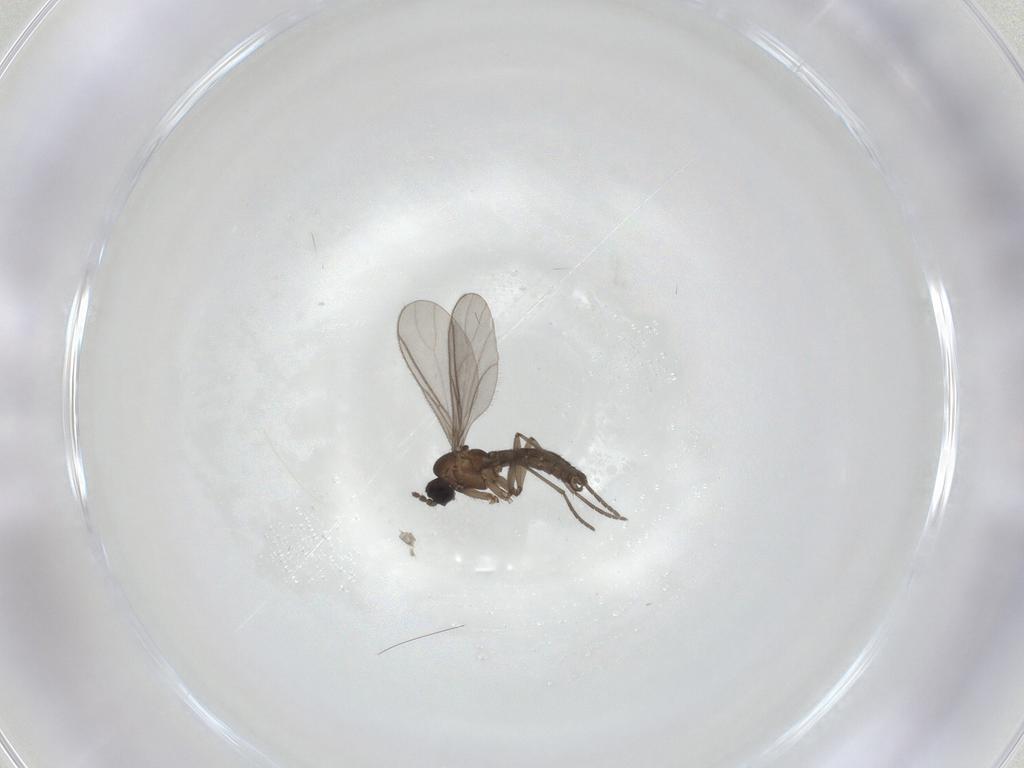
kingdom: Animalia
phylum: Arthropoda
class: Insecta
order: Diptera
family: Sciaridae
